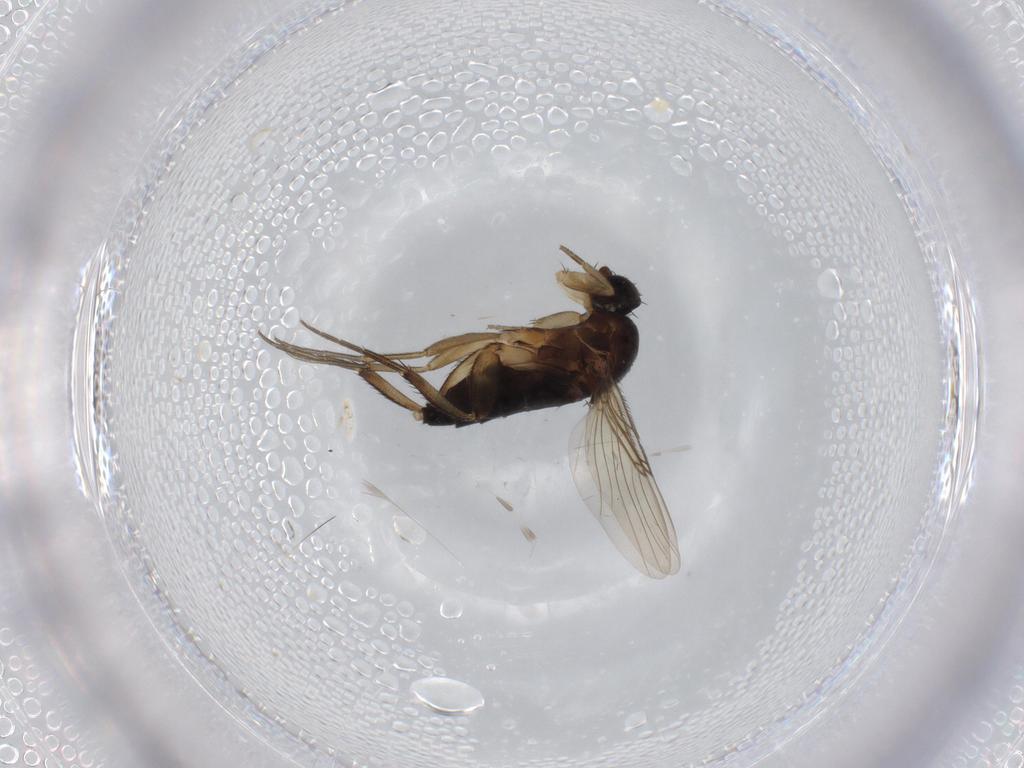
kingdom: Animalia
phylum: Arthropoda
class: Insecta
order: Diptera
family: Phoridae
